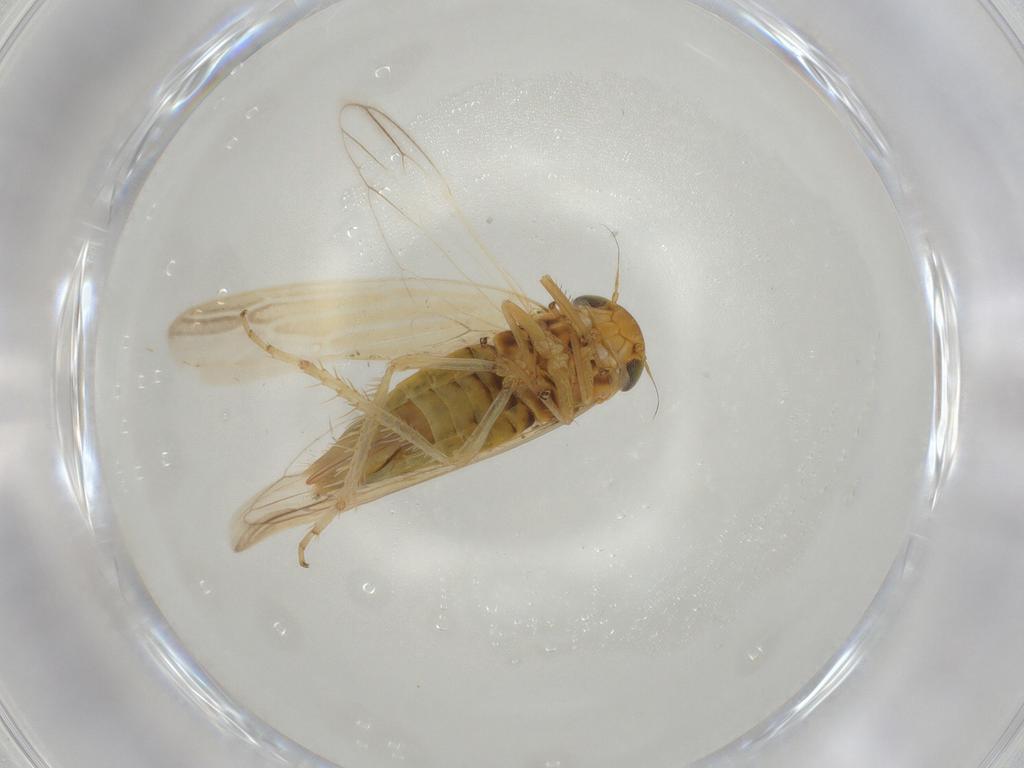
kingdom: Animalia
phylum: Arthropoda
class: Insecta
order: Hemiptera
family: Cicadellidae
